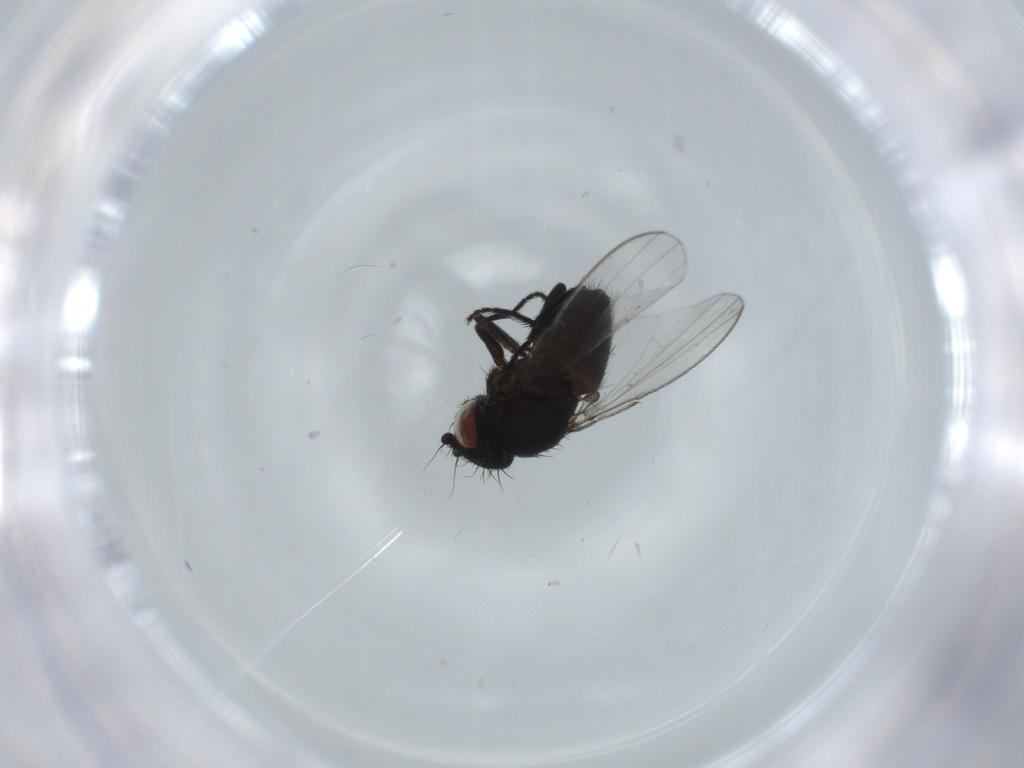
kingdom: Animalia
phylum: Arthropoda
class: Insecta
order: Diptera
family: Milichiidae
